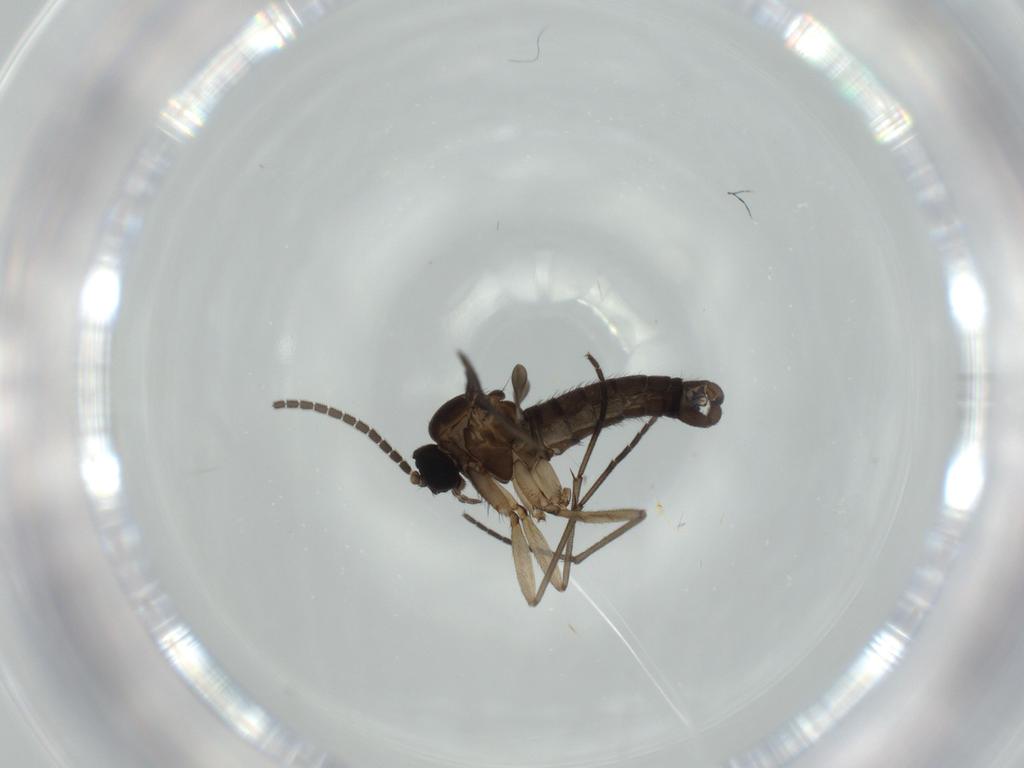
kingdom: Animalia
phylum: Arthropoda
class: Insecta
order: Diptera
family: Sciaridae
